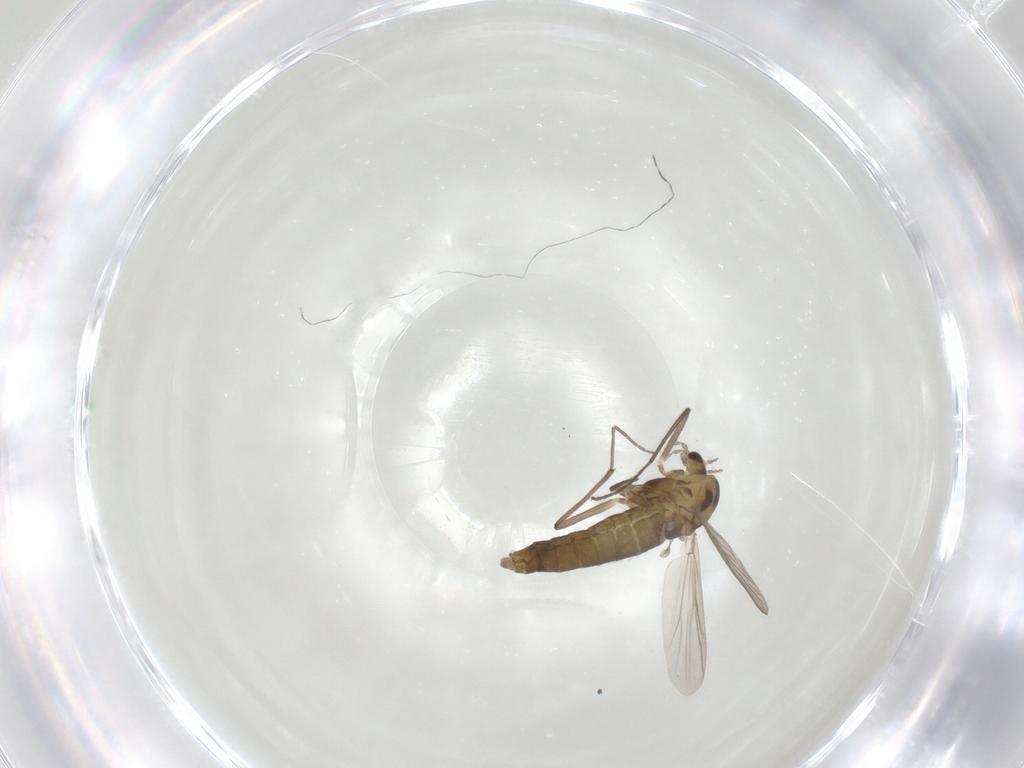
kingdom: Animalia
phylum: Arthropoda
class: Insecta
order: Diptera
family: Chironomidae
